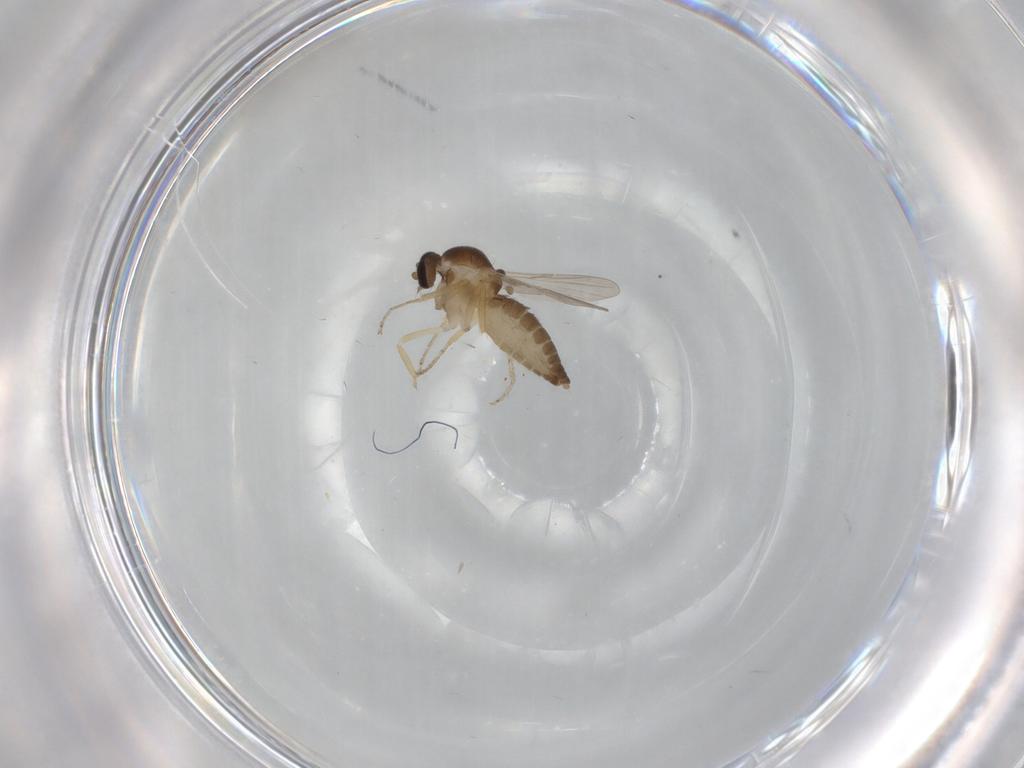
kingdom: Animalia
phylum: Arthropoda
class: Insecta
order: Diptera
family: Ceratopogonidae
